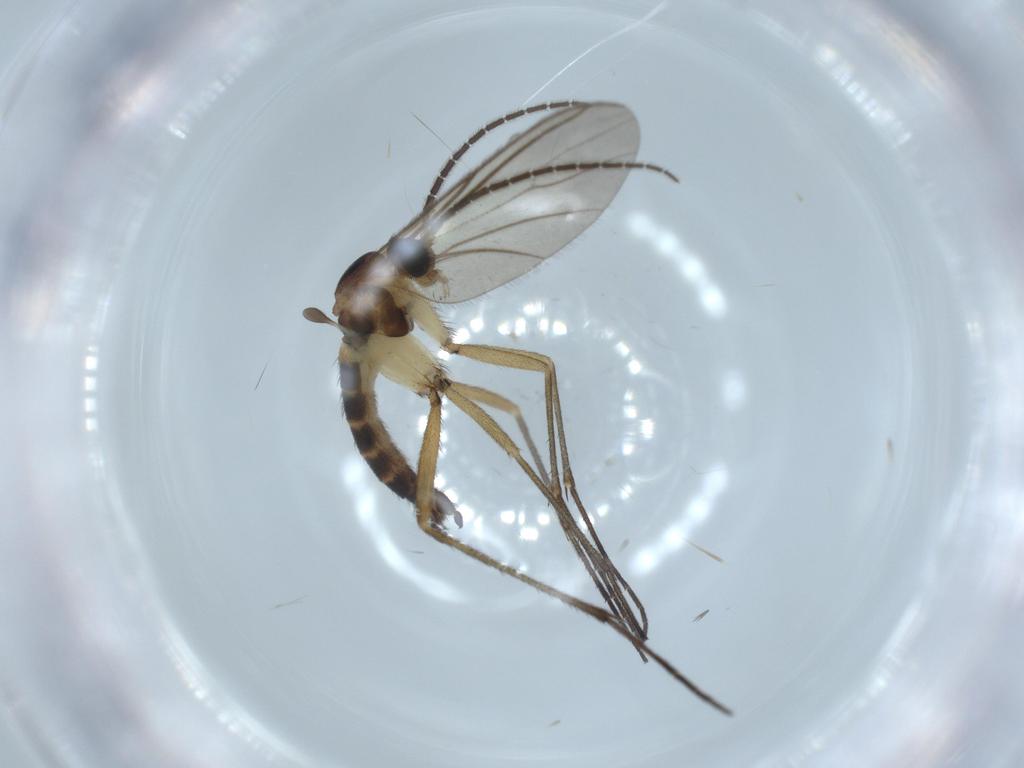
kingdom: Animalia
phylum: Arthropoda
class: Insecta
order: Diptera
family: Sciaridae
